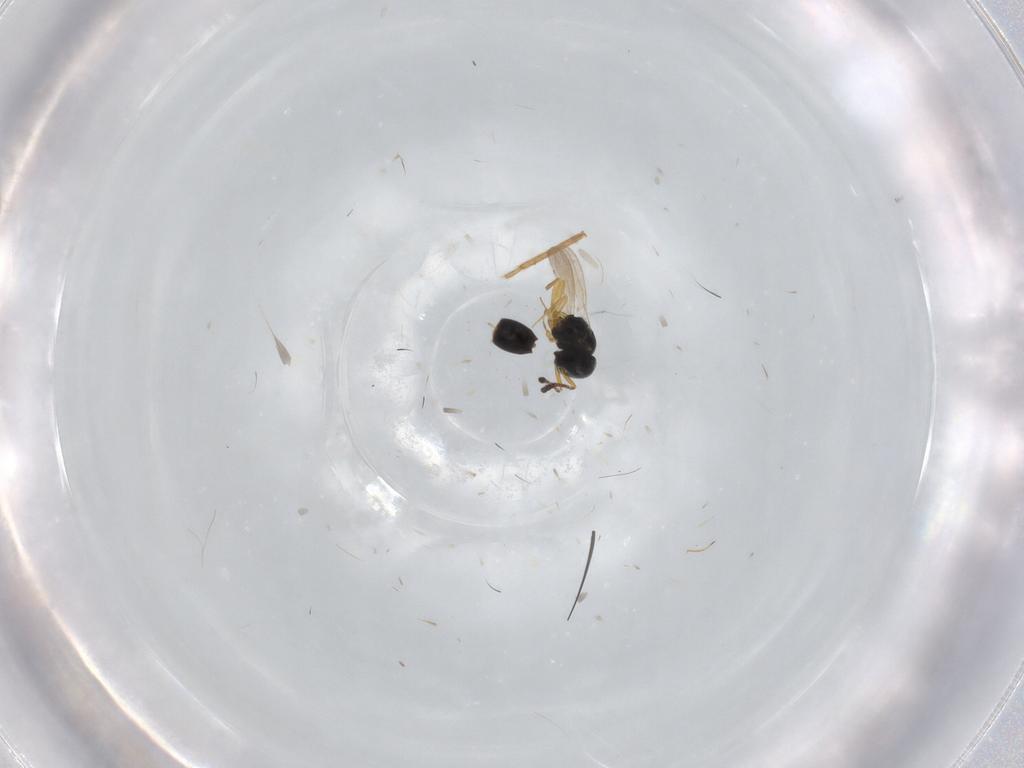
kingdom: Animalia
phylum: Arthropoda
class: Insecta
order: Hymenoptera
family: Scelionidae
